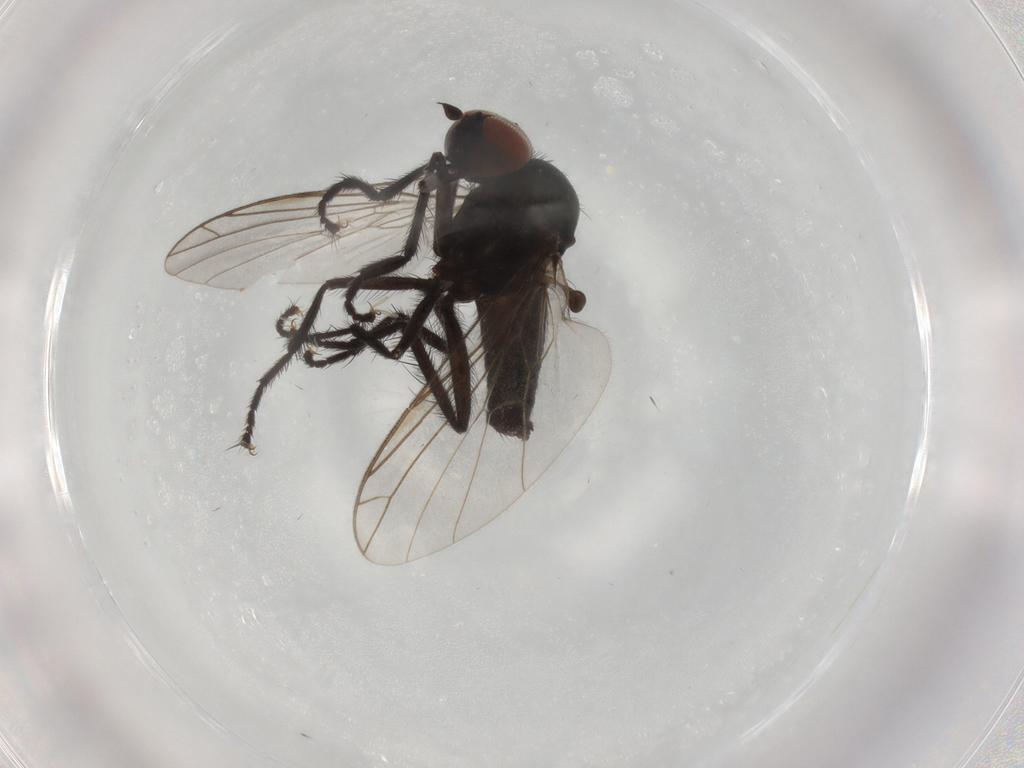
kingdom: Animalia
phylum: Arthropoda
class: Insecta
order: Diptera
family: Empididae
